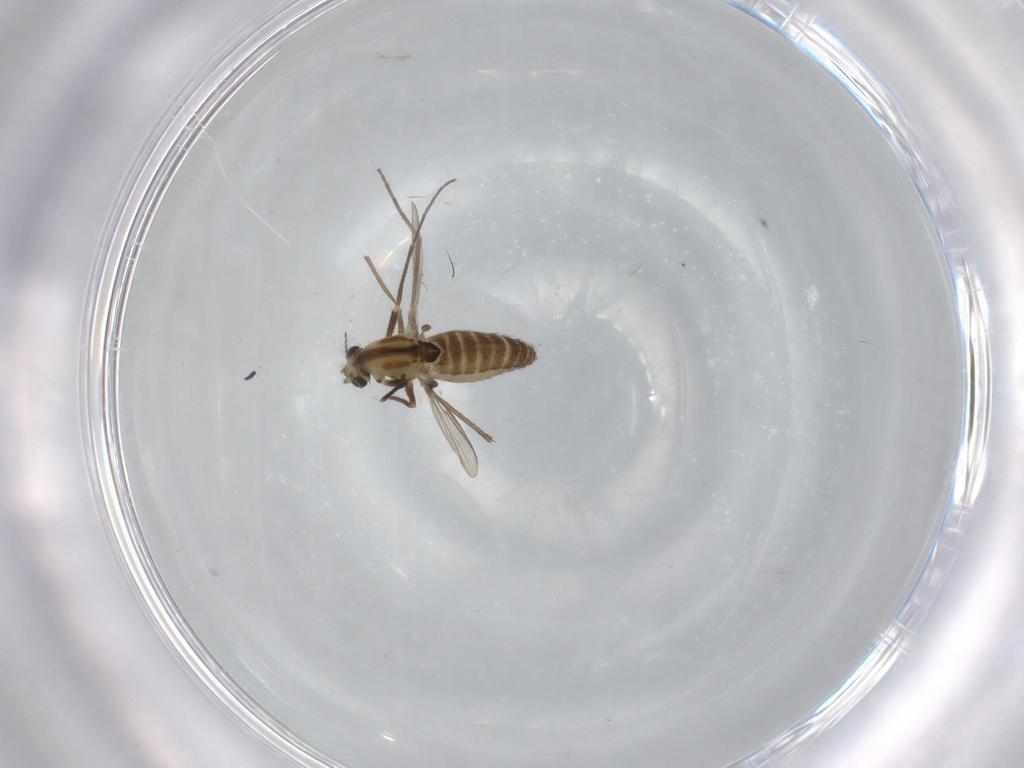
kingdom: Animalia
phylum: Arthropoda
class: Insecta
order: Diptera
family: Chironomidae
